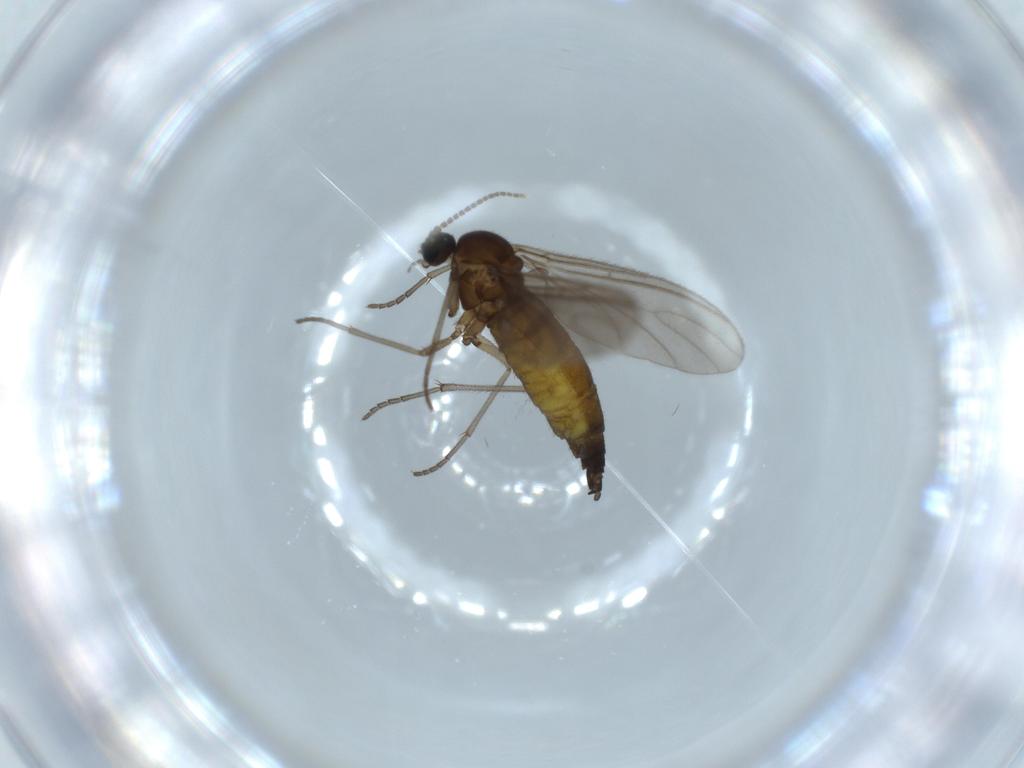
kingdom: Animalia
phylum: Arthropoda
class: Insecta
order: Diptera
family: Sciaridae
